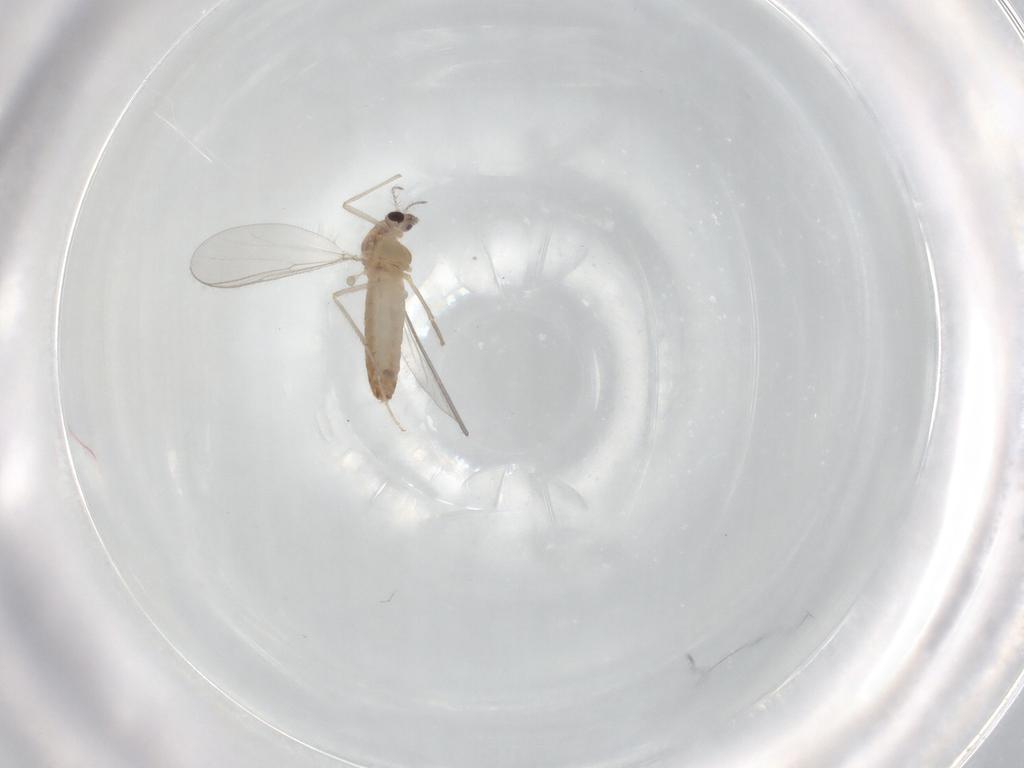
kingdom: Animalia
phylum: Arthropoda
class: Insecta
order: Diptera
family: Chironomidae
